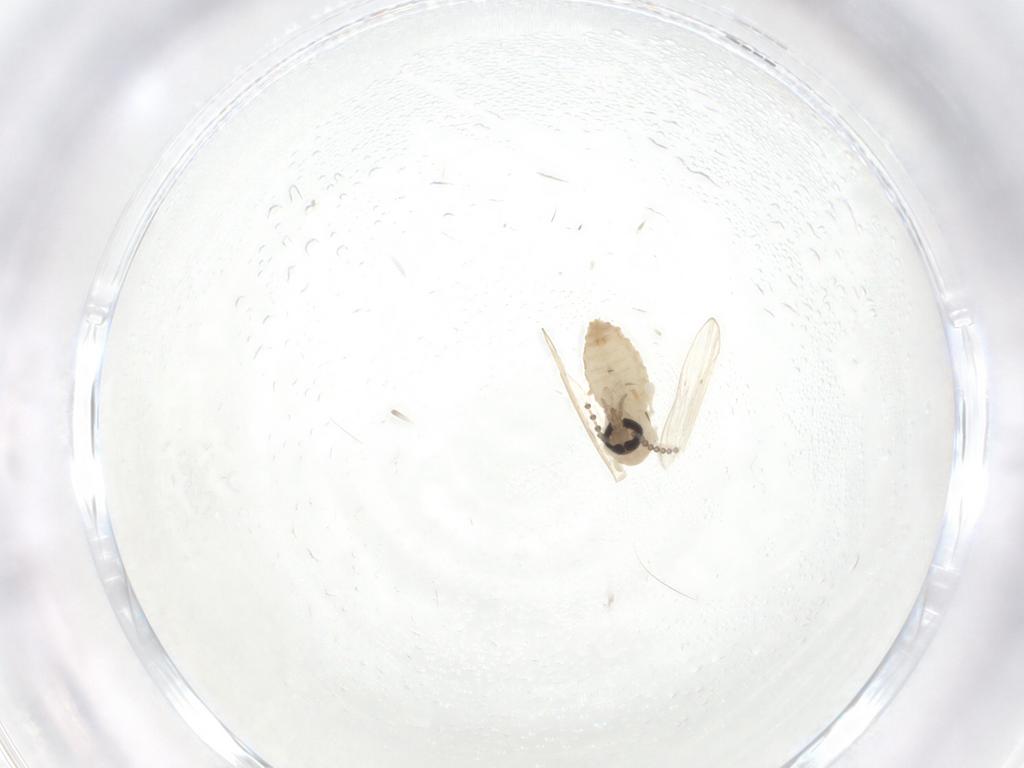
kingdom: Animalia
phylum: Arthropoda
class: Insecta
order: Diptera
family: Psychodidae
